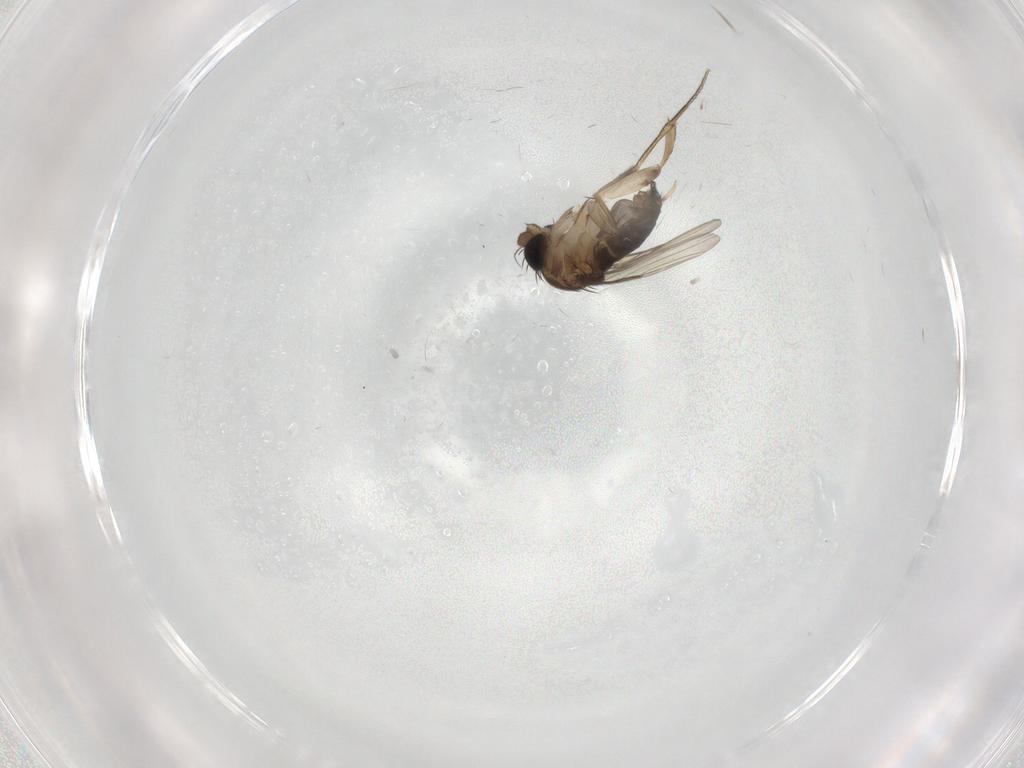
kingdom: Animalia
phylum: Arthropoda
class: Insecta
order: Diptera
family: Phoridae
